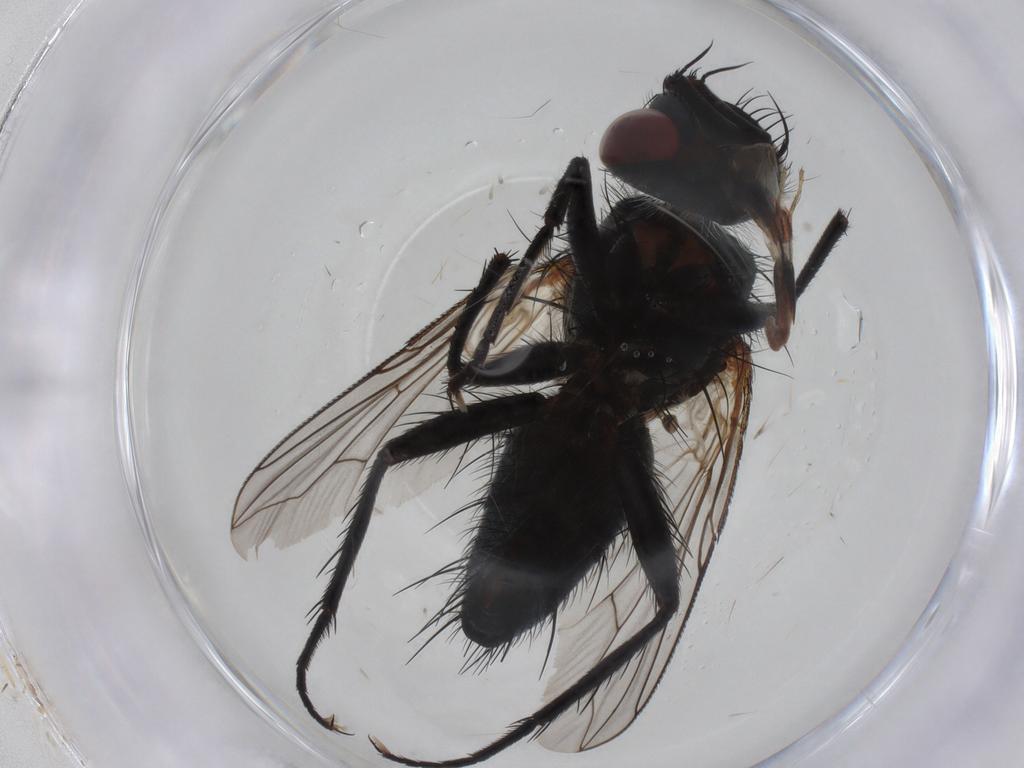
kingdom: Animalia
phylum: Arthropoda
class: Insecta
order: Diptera
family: Tachinidae
